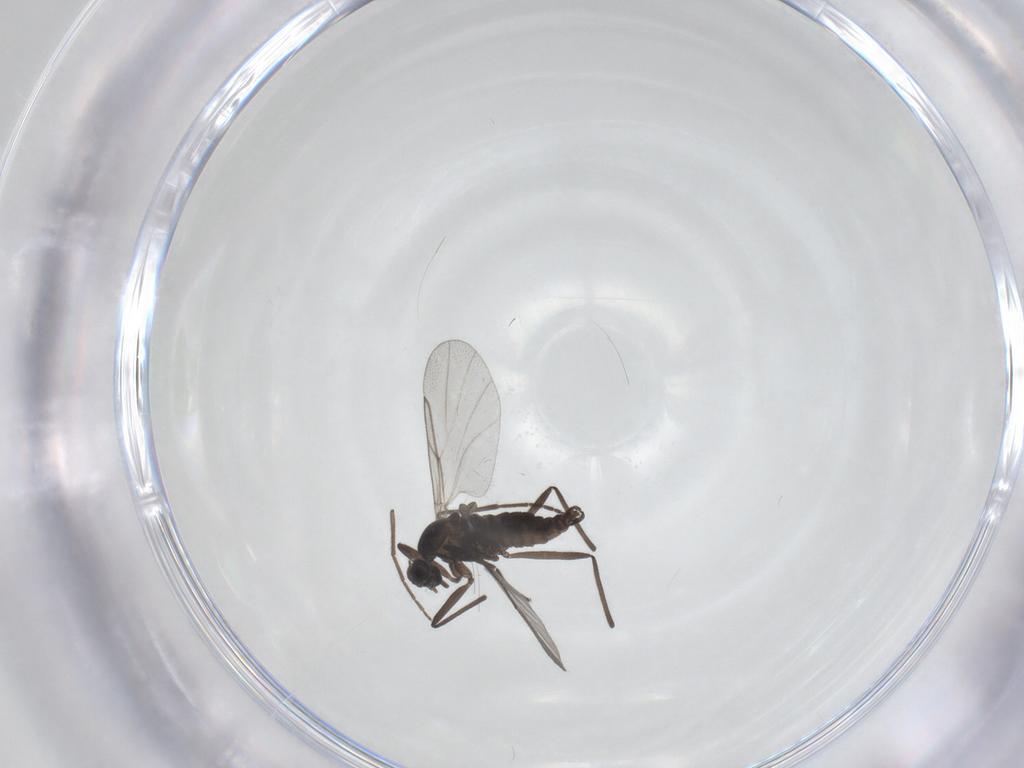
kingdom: Animalia
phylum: Arthropoda
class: Insecta
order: Diptera
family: Cecidomyiidae
